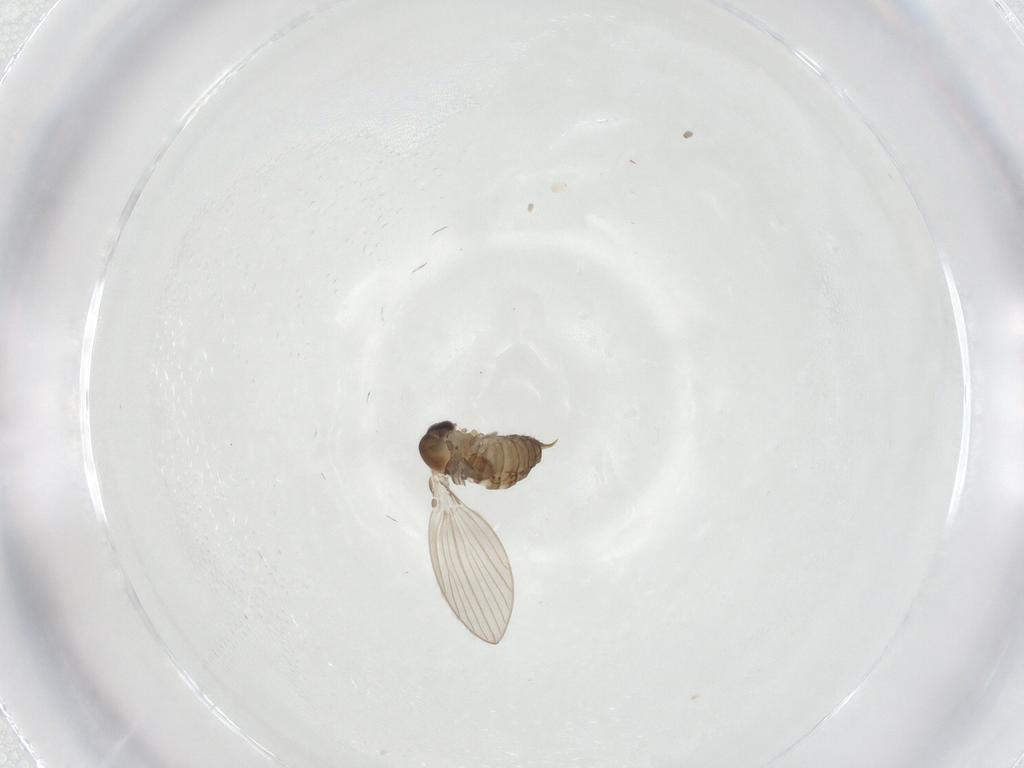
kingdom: Animalia
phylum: Arthropoda
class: Insecta
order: Diptera
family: Psychodidae
